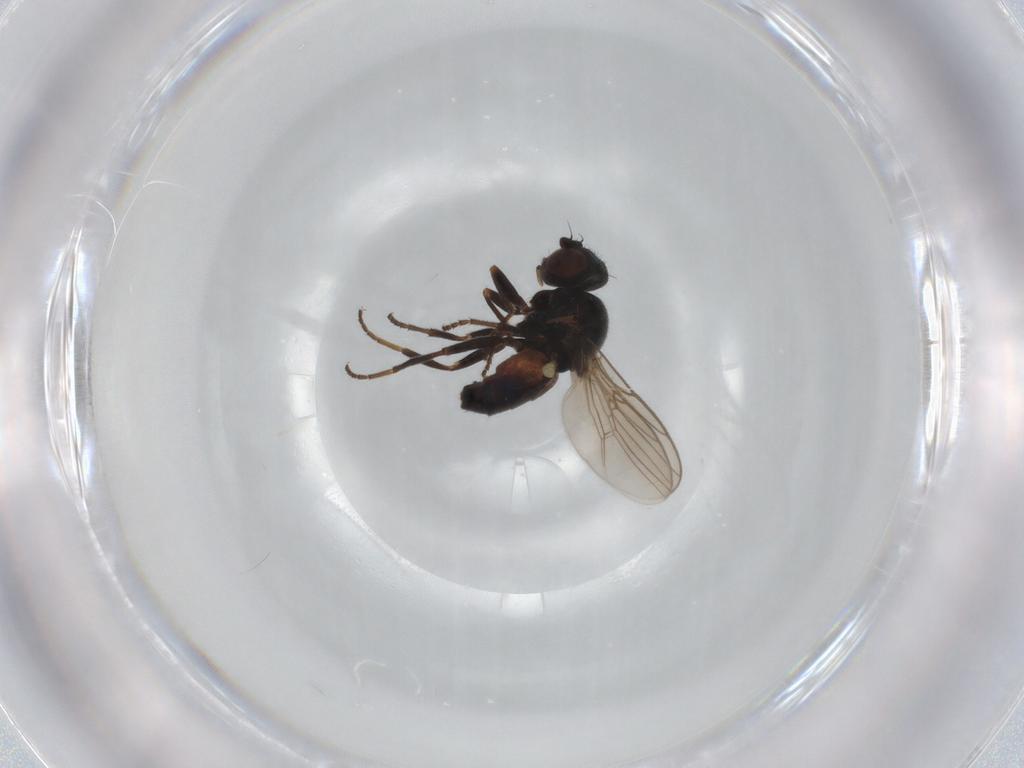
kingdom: Animalia
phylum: Arthropoda
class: Insecta
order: Diptera
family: Chloropidae
